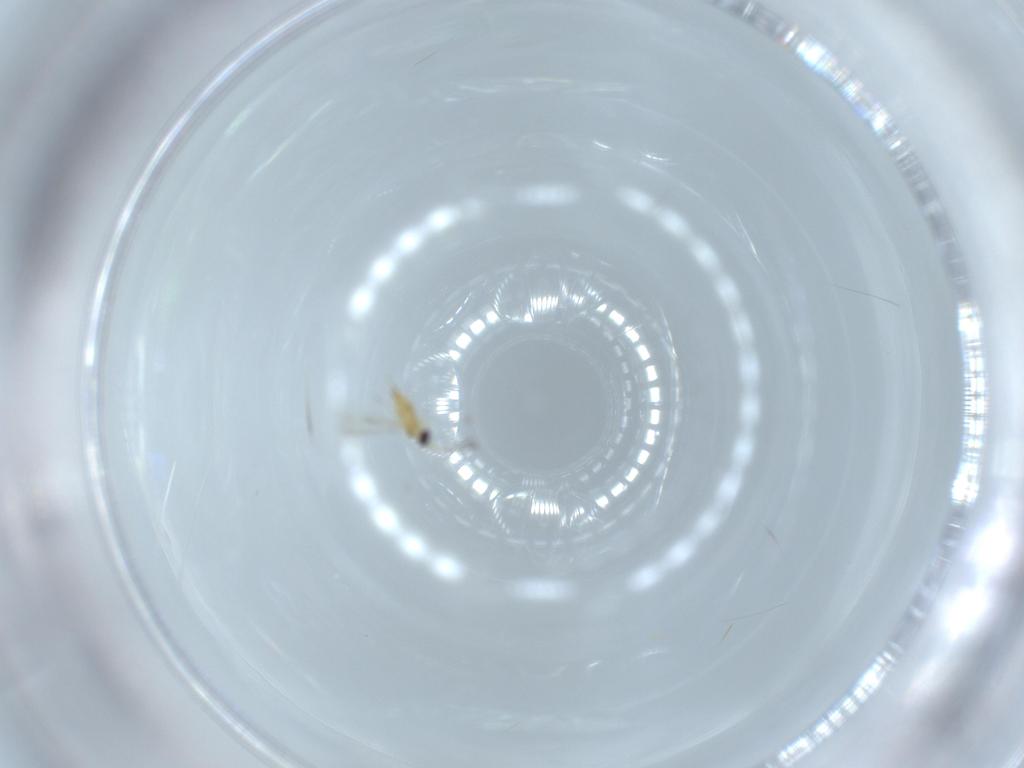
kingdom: Animalia
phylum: Arthropoda
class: Insecta
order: Hymenoptera
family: Mymaridae
